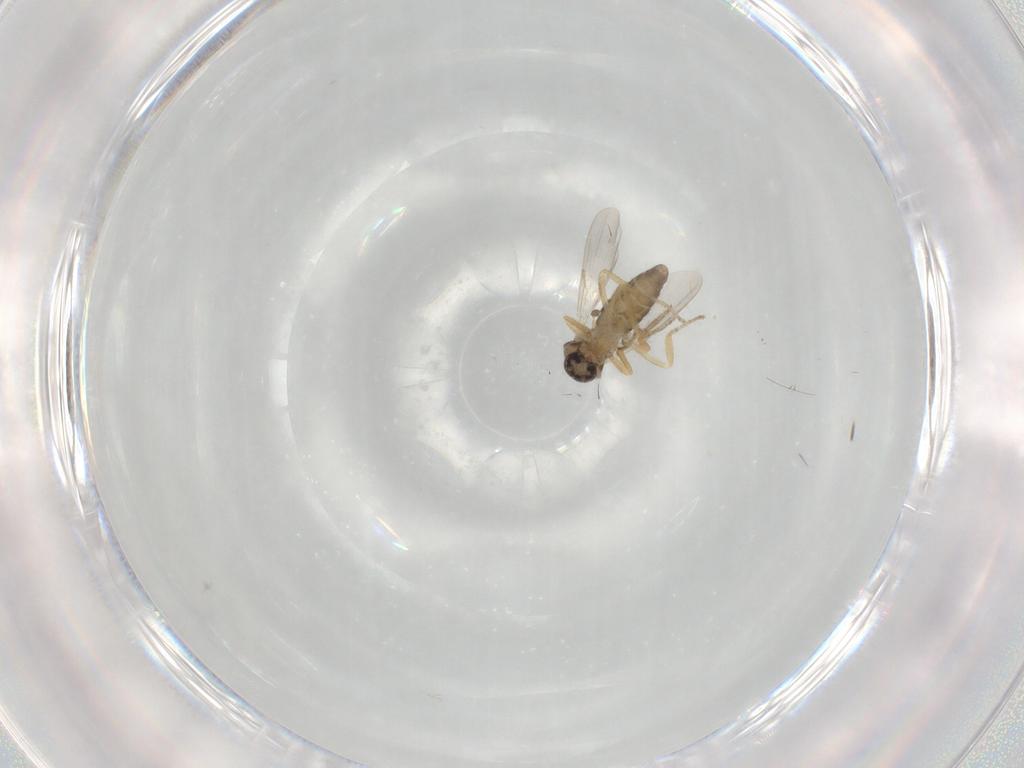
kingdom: Animalia
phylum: Arthropoda
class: Insecta
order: Diptera
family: Ceratopogonidae
